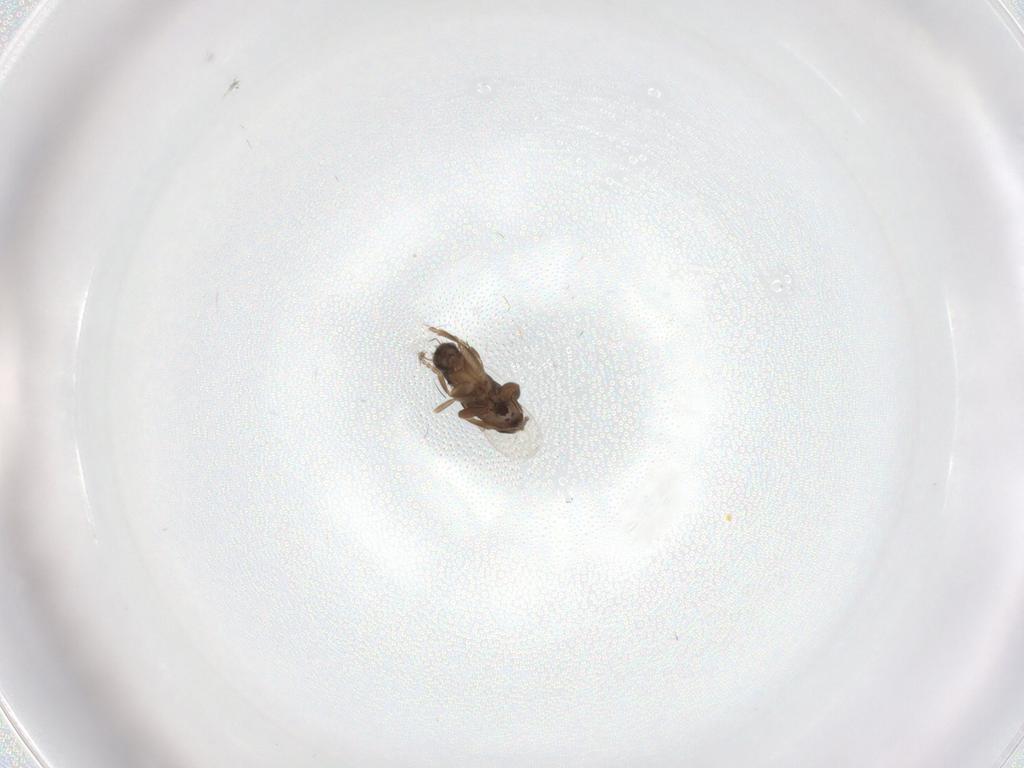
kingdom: Animalia
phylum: Arthropoda
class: Insecta
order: Diptera
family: Phoridae
